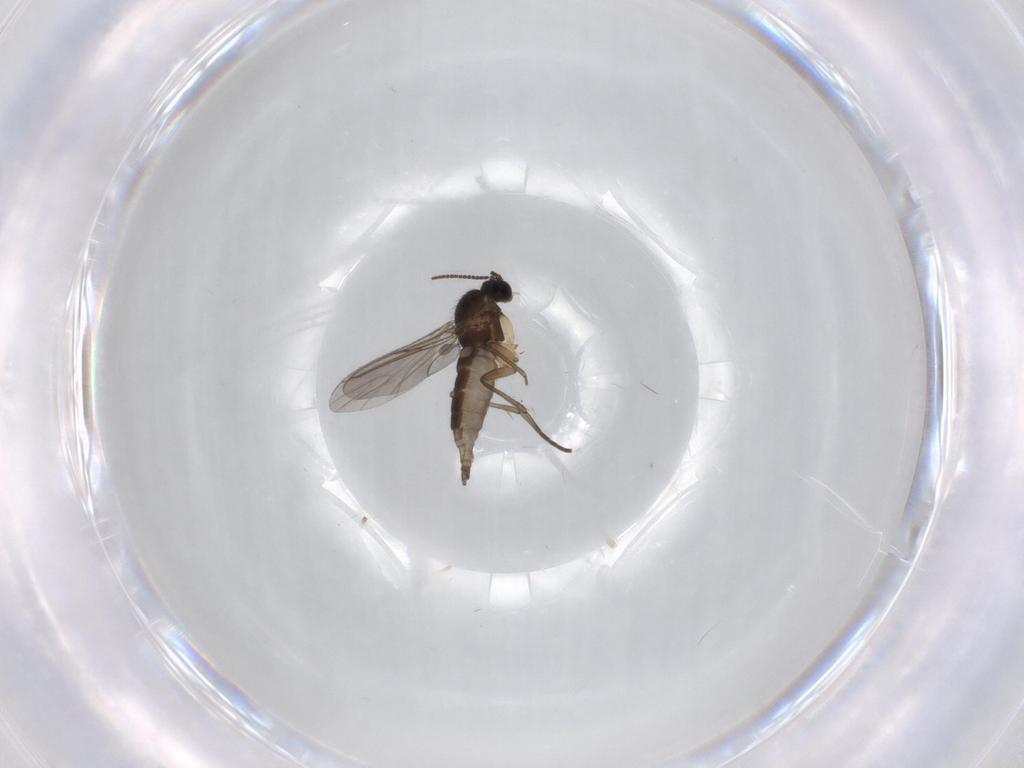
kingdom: Animalia
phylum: Arthropoda
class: Insecta
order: Diptera
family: Sciaridae
